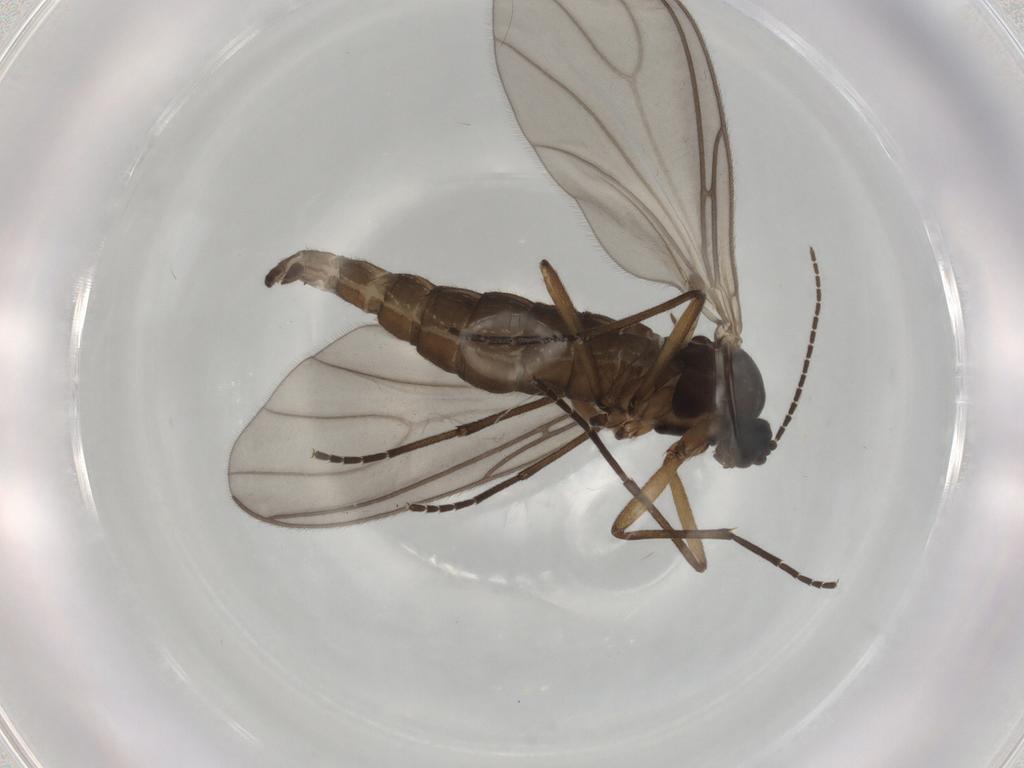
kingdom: Animalia
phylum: Arthropoda
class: Insecta
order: Diptera
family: Sciaridae
